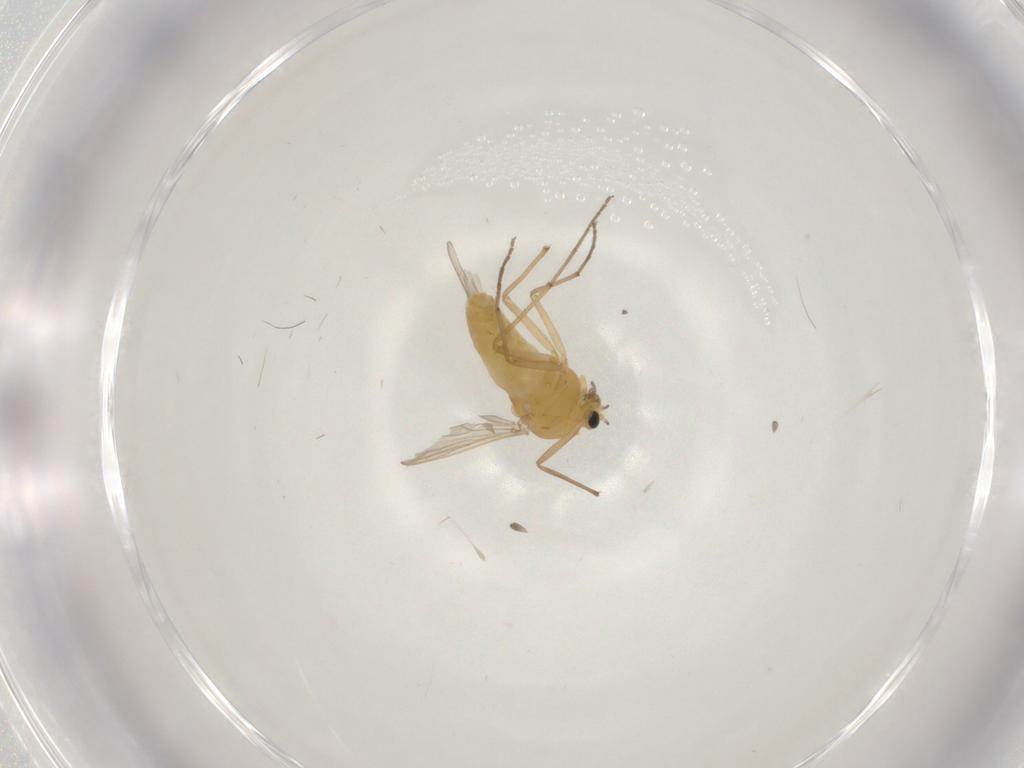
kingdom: Animalia
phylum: Arthropoda
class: Insecta
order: Diptera
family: Chironomidae
